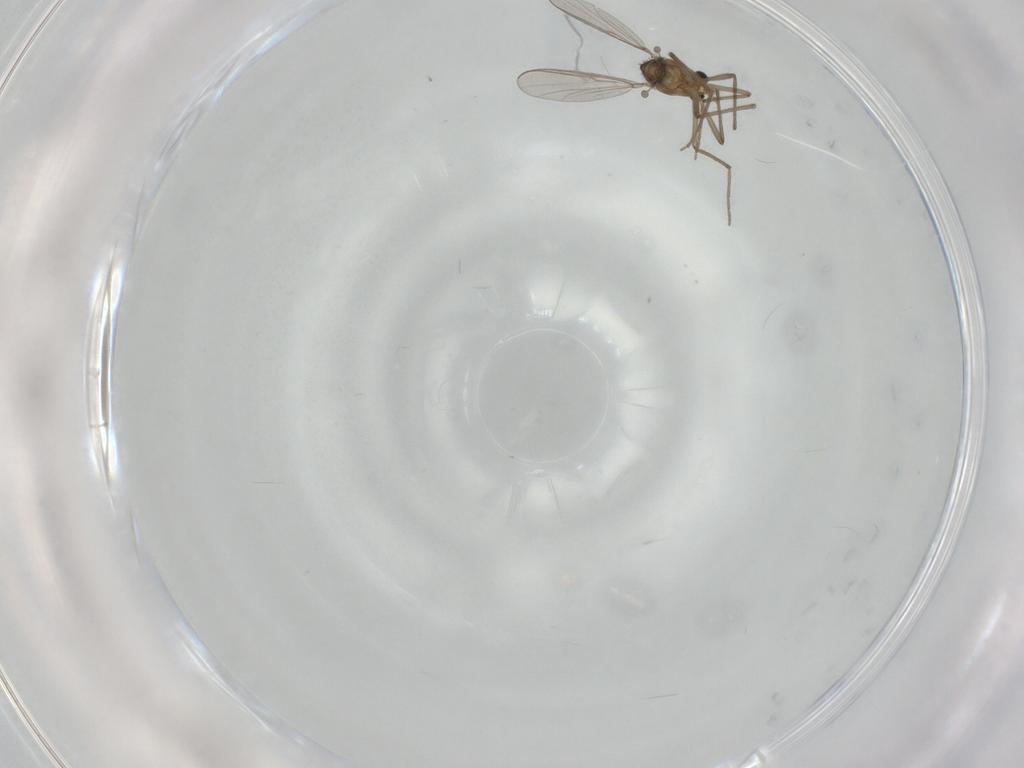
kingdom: Animalia
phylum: Arthropoda
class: Insecta
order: Diptera
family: Chironomidae
